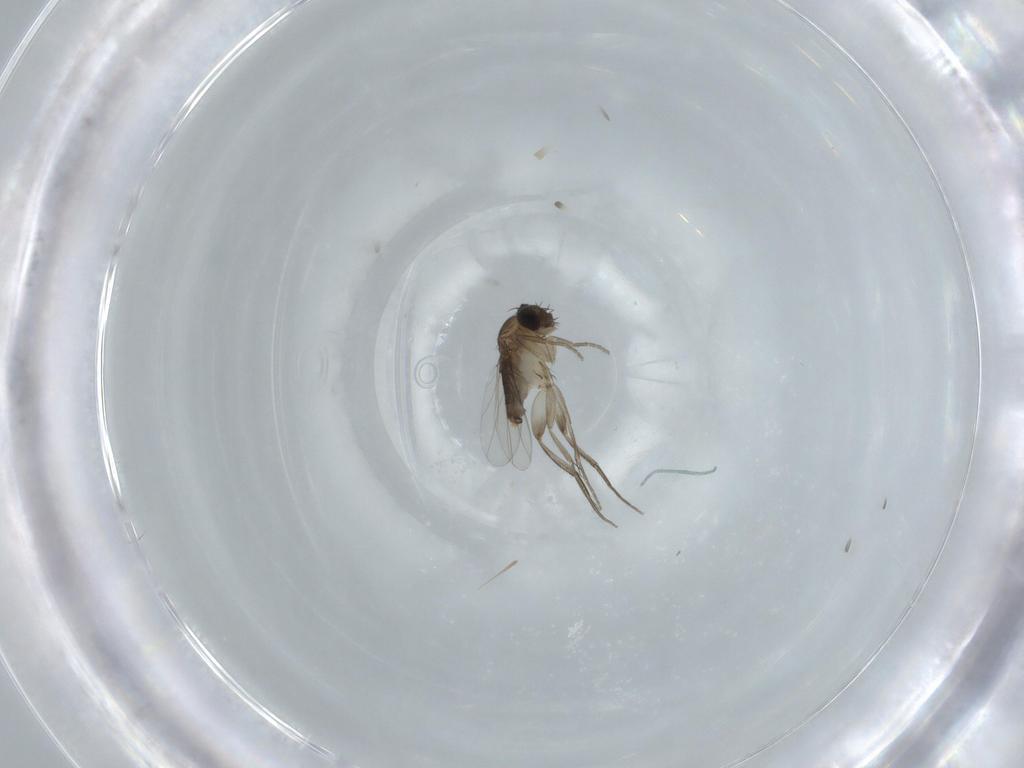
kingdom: Animalia
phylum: Arthropoda
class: Insecta
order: Diptera
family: Cecidomyiidae
